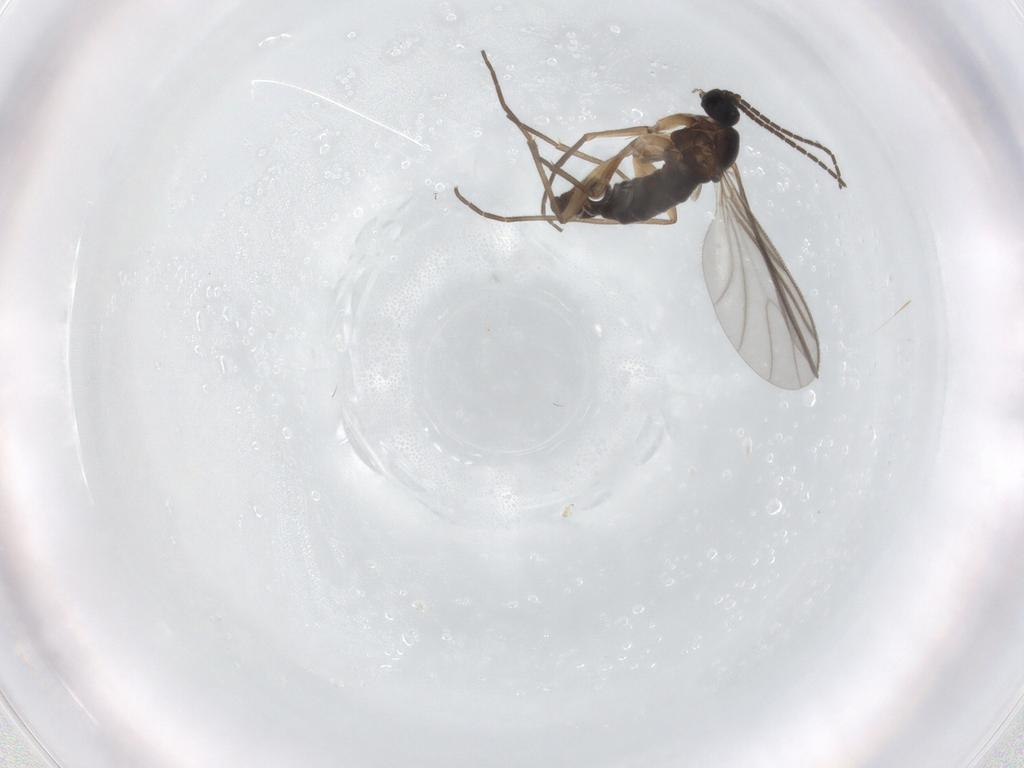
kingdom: Animalia
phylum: Arthropoda
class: Insecta
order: Diptera
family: Sciaridae
